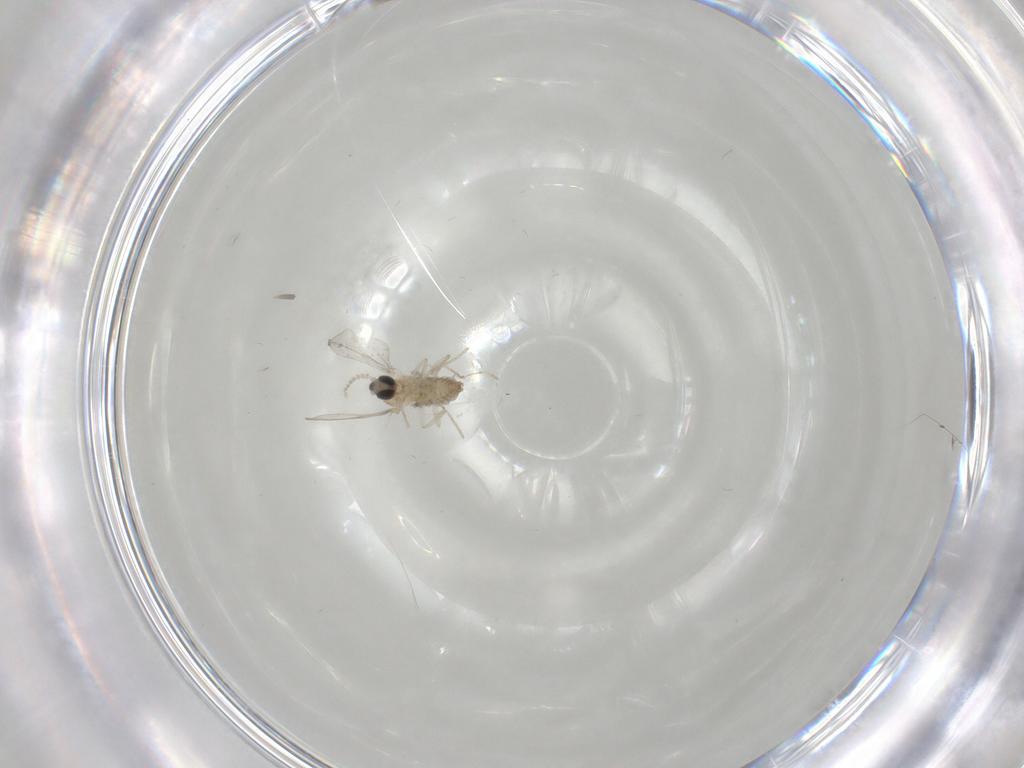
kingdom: Animalia
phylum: Arthropoda
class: Insecta
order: Diptera
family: Cecidomyiidae
